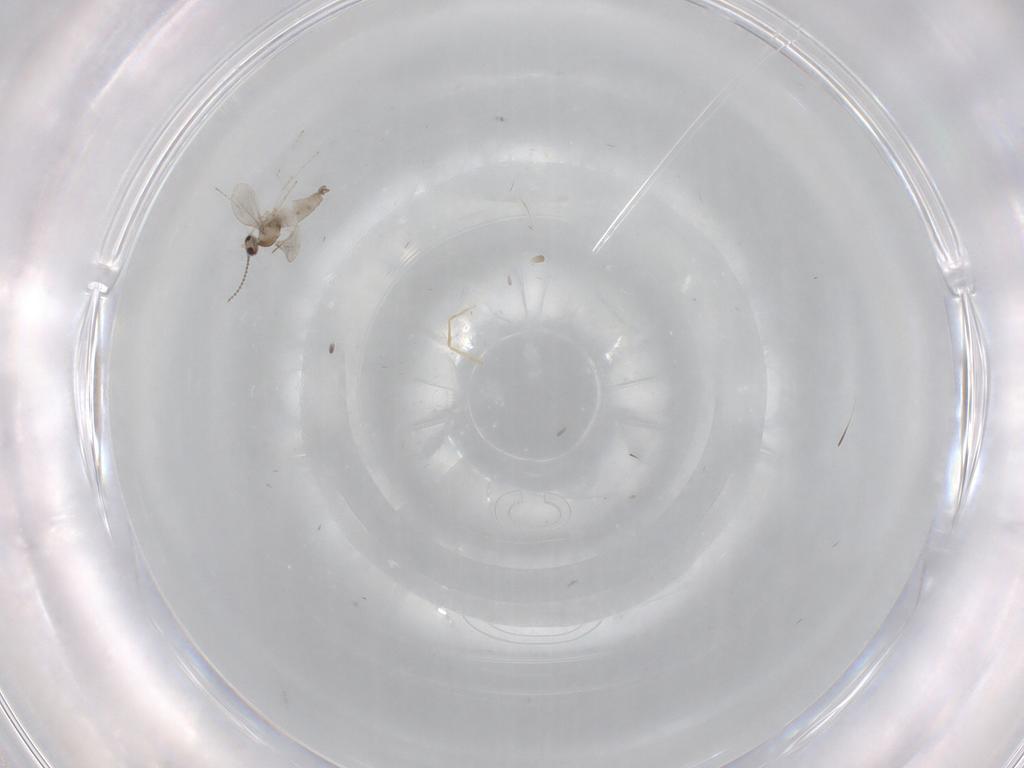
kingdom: Animalia
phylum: Arthropoda
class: Insecta
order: Diptera
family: Cecidomyiidae
